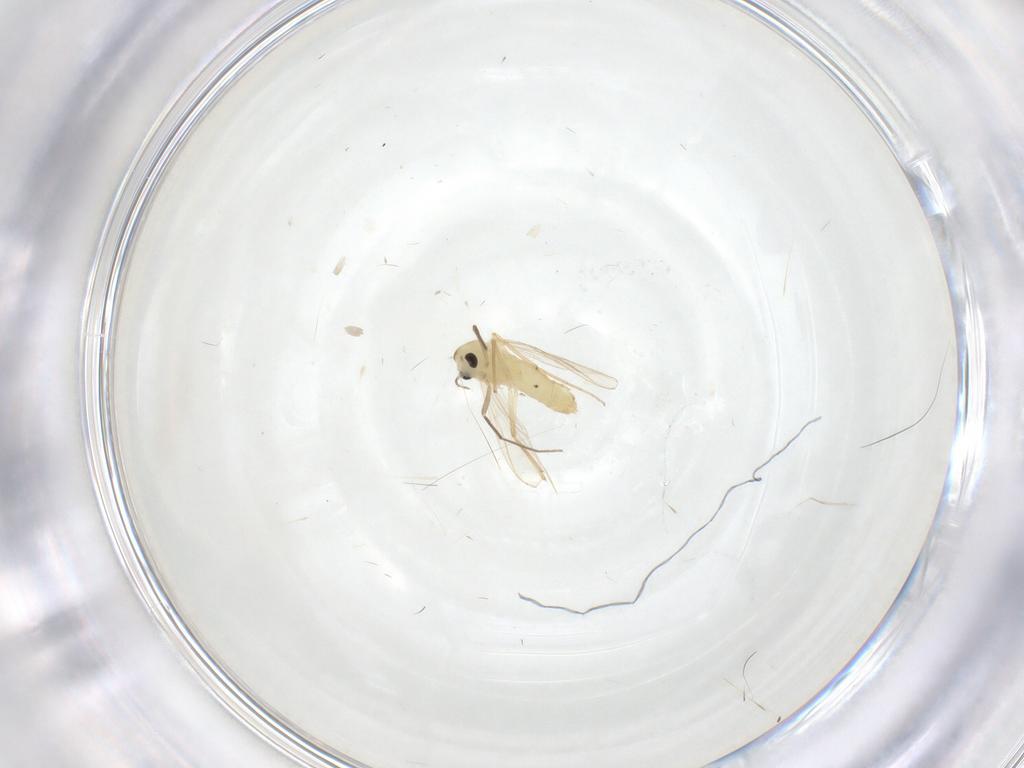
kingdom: Animalia
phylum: Arthropoda
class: Insecta
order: Diptera
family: Chironomidae
